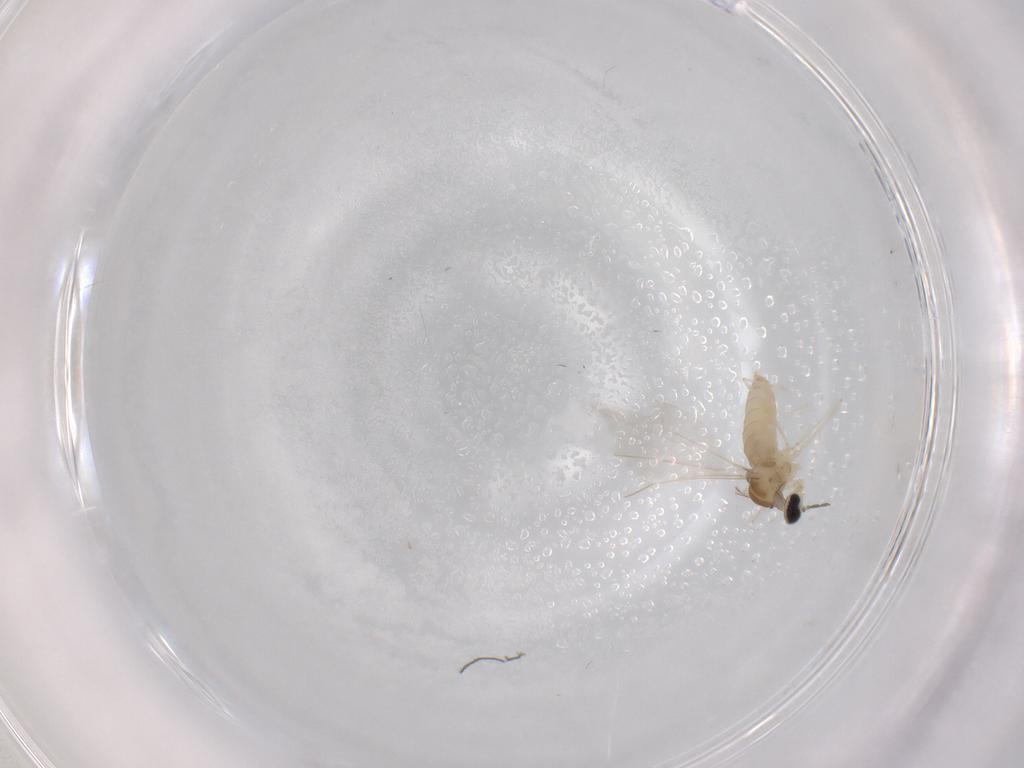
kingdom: Animalia
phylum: Arthropoda
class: Insecta
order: Diptera
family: Cecidomyiidae
